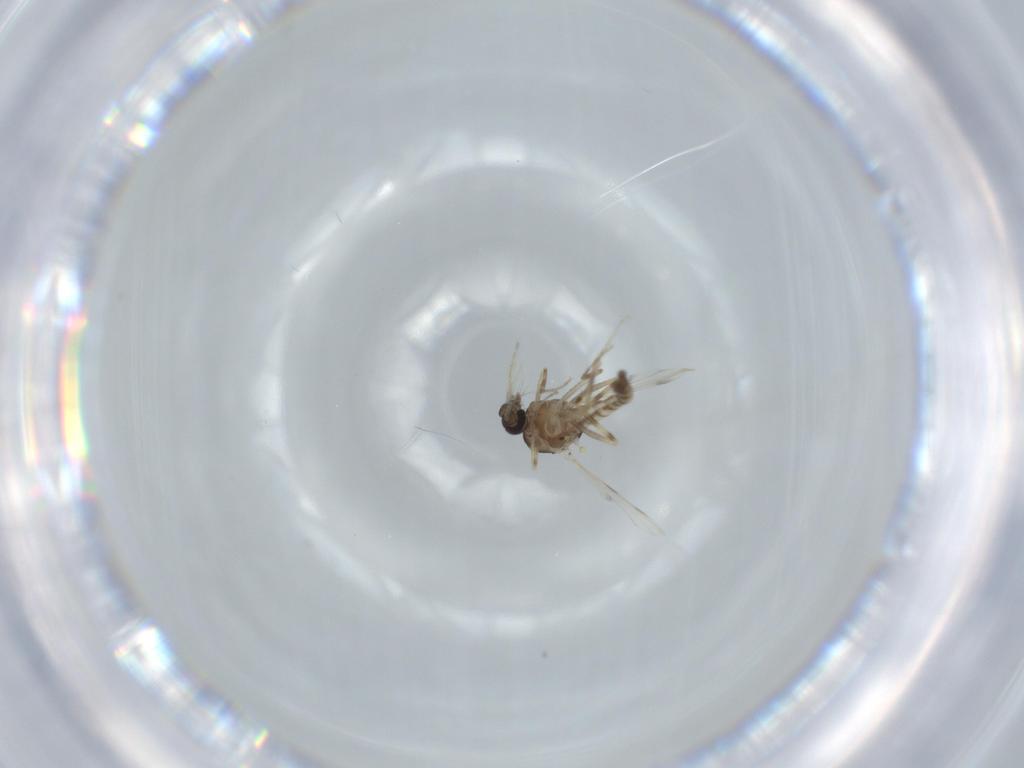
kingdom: Animalia
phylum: Arthropoda
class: Insecta
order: Diptera
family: Ceratopogonidae
